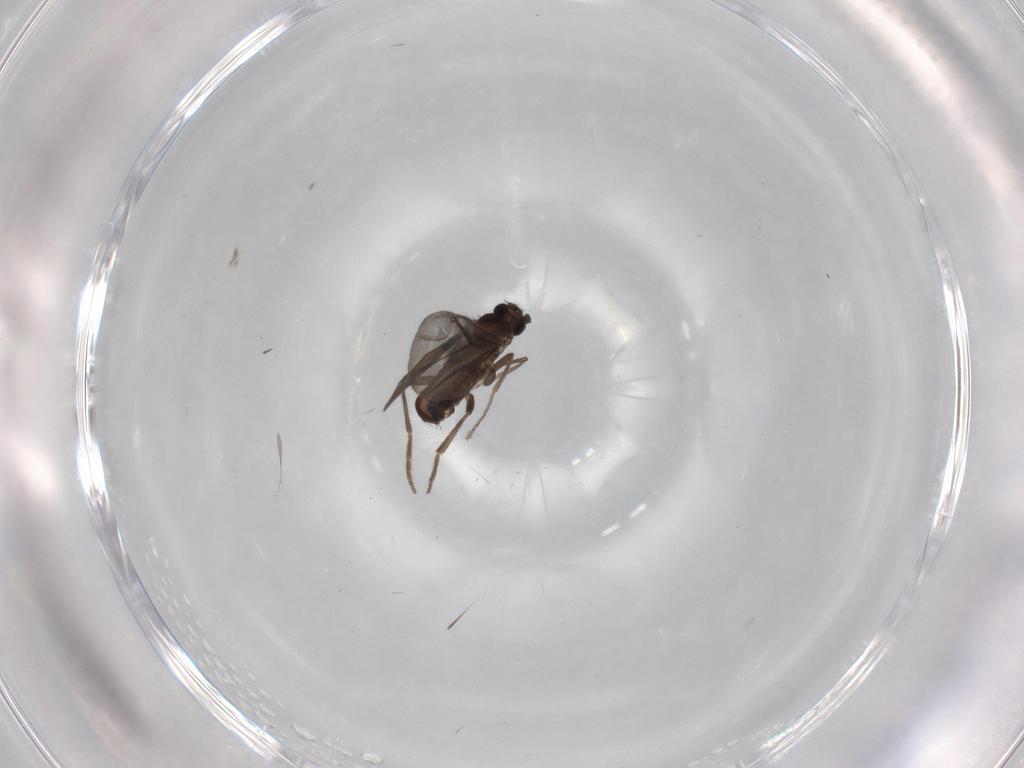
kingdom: Animalia
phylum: Arthropoda
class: Insecta
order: Diptera
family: Phoridae
